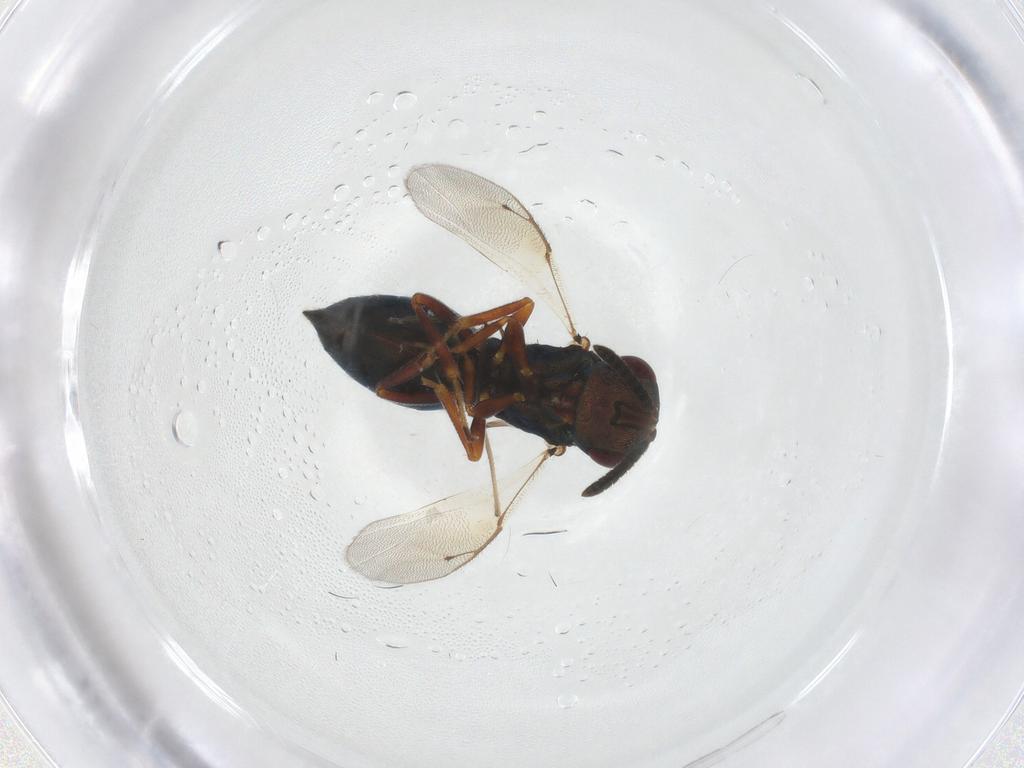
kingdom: Animalia
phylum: Arthropoda
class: Insecta
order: Hymenoptera
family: Pteromalidae
